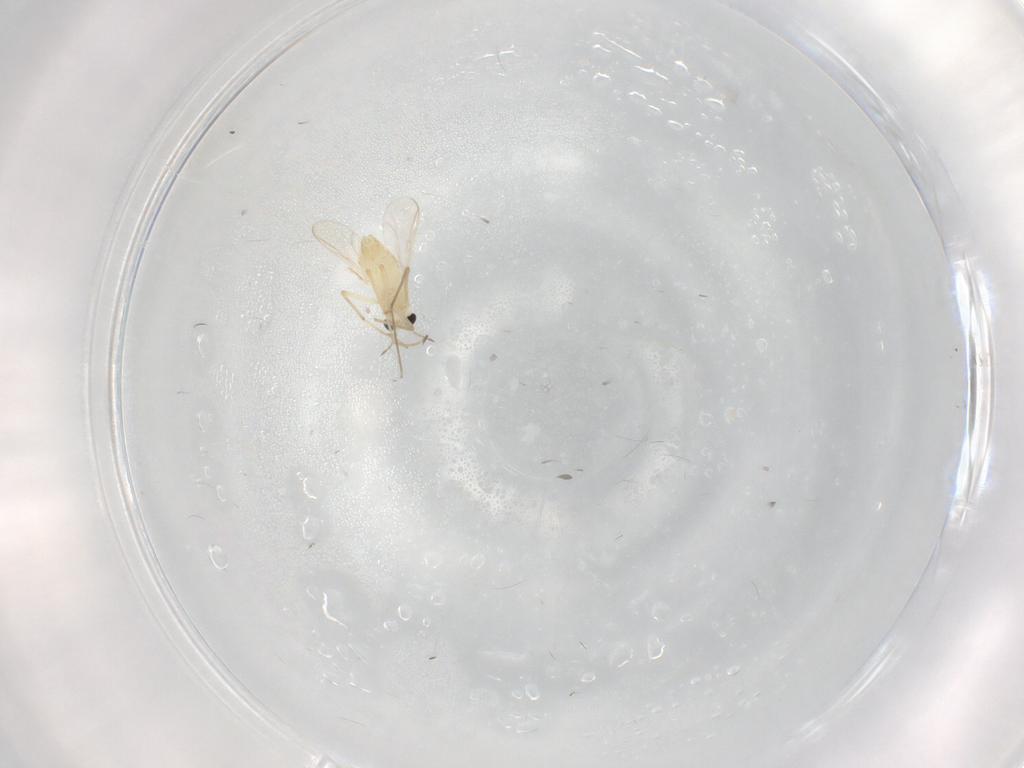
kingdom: Animalia
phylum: Arthropoda
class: Insecta
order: Diptera
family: Chironomidae
